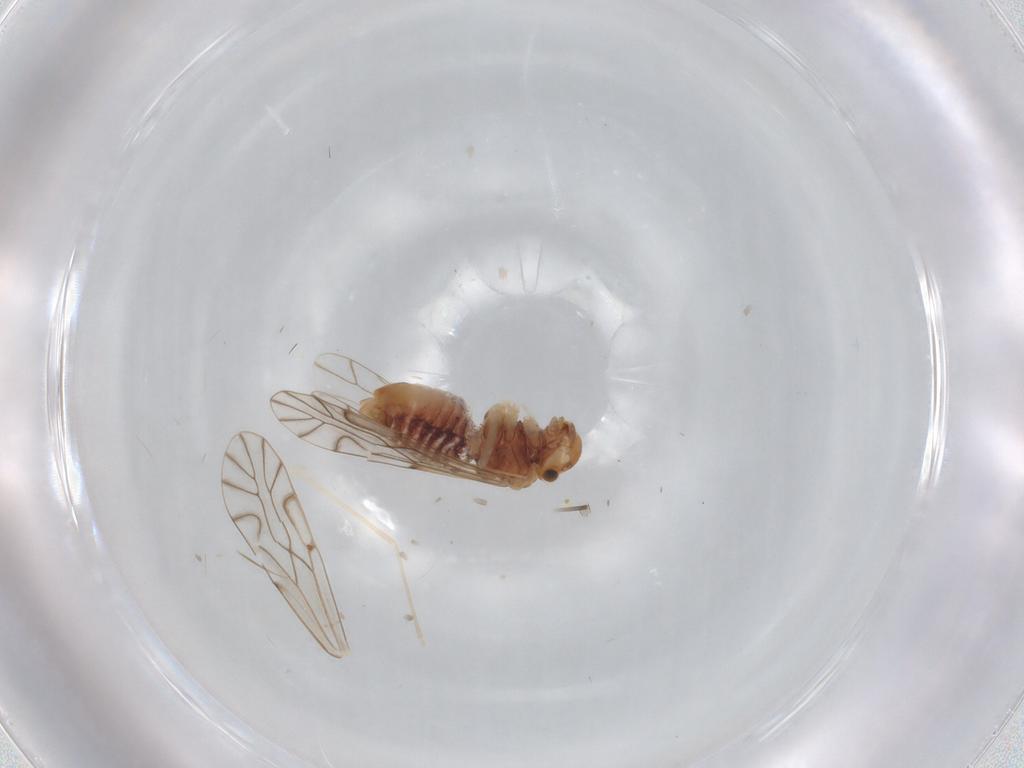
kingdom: Animalia
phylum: Arthropoda
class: Insecta
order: Psocodea
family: Lachesillidae
